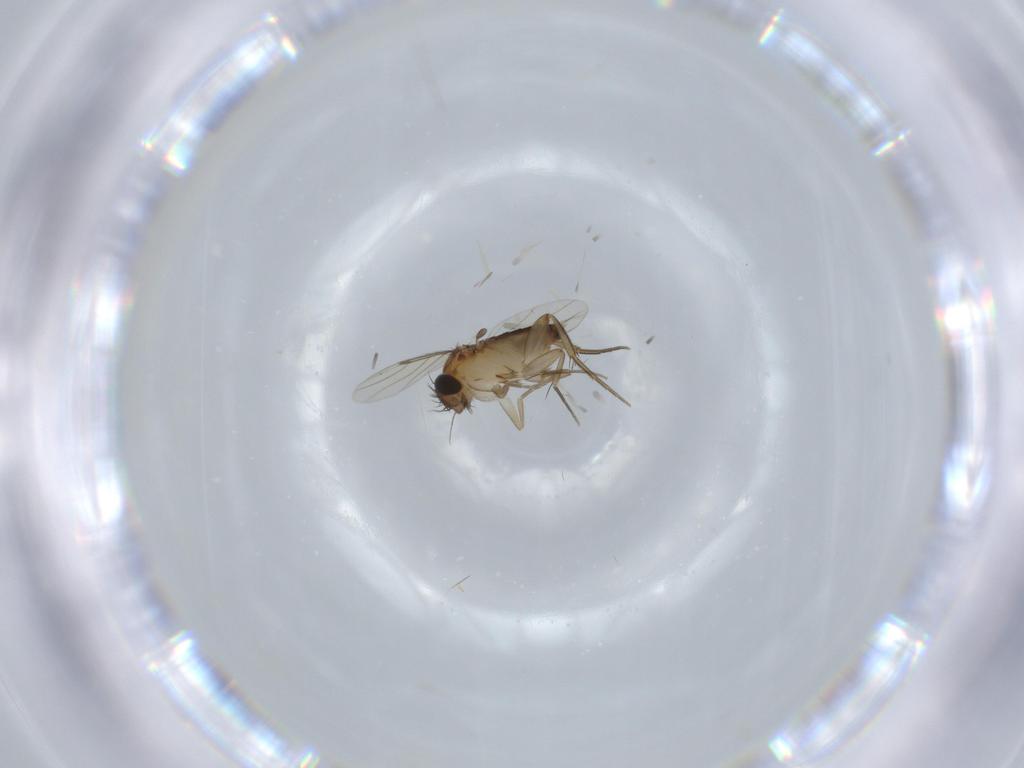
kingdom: Animalia
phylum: Arthropoda
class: Insecta
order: Diptera
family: Phoridae
